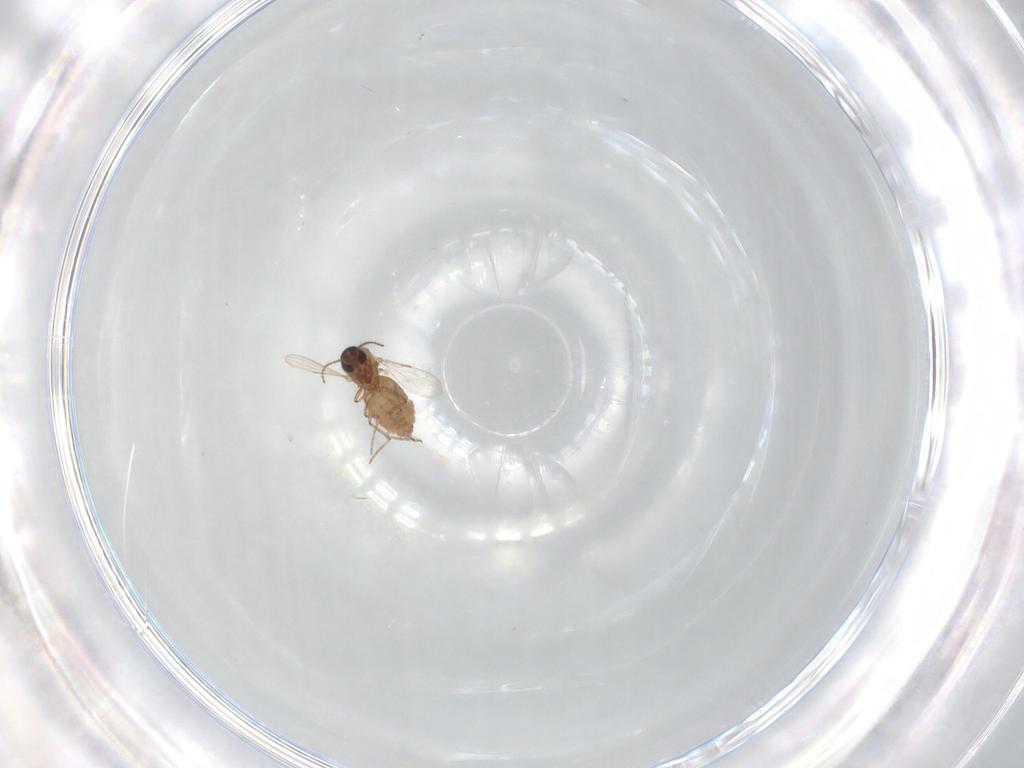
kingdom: Animalia
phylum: Arthropoda
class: Insecta
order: Diptera
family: Ceratopogonidae
